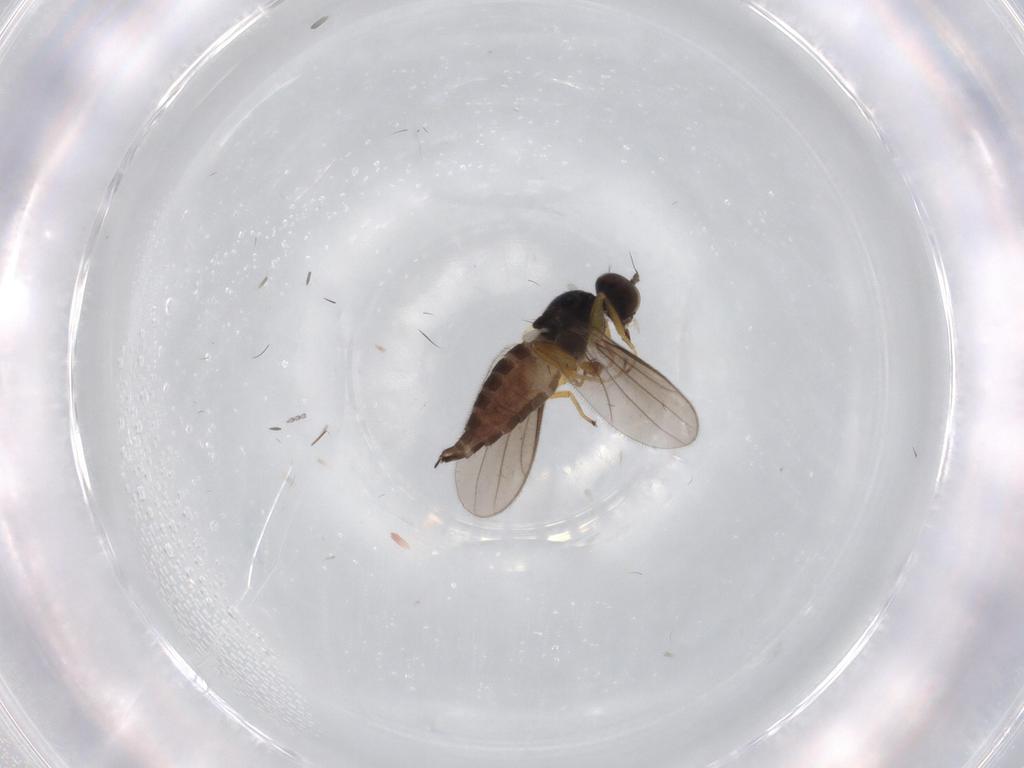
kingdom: Animalia
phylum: Arthropoda
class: Insecta
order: Diptera
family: Hybotidae
